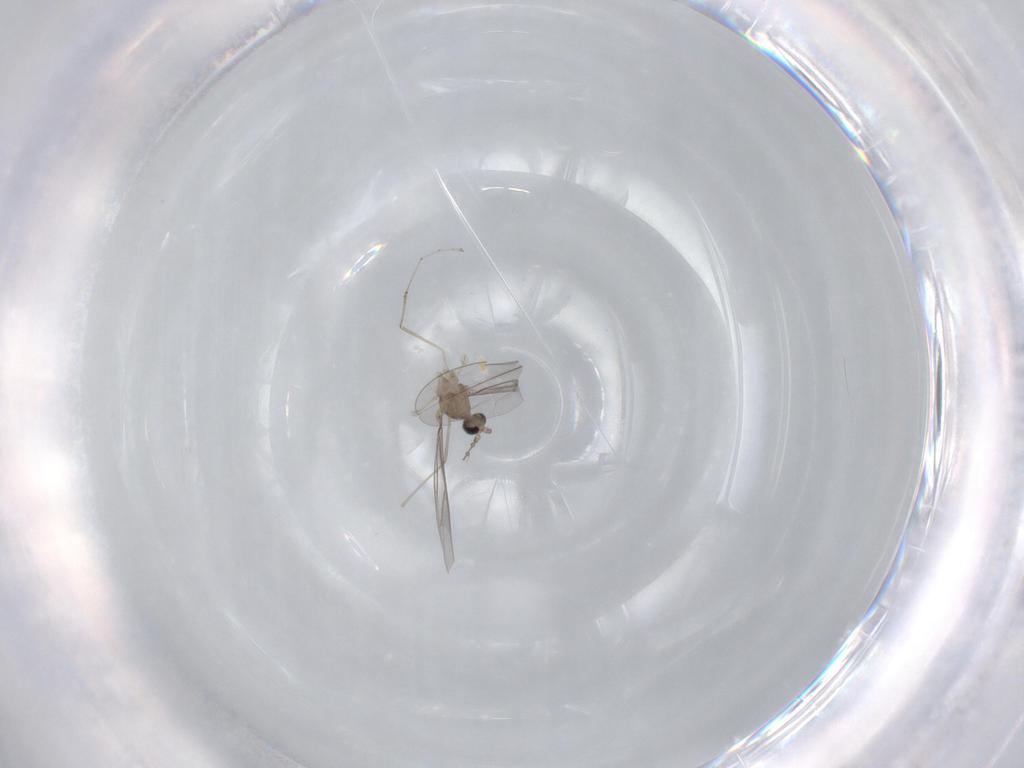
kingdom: Animalia
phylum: Arthropoda
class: Insecta
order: Diptera
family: Cecidomyiidae
